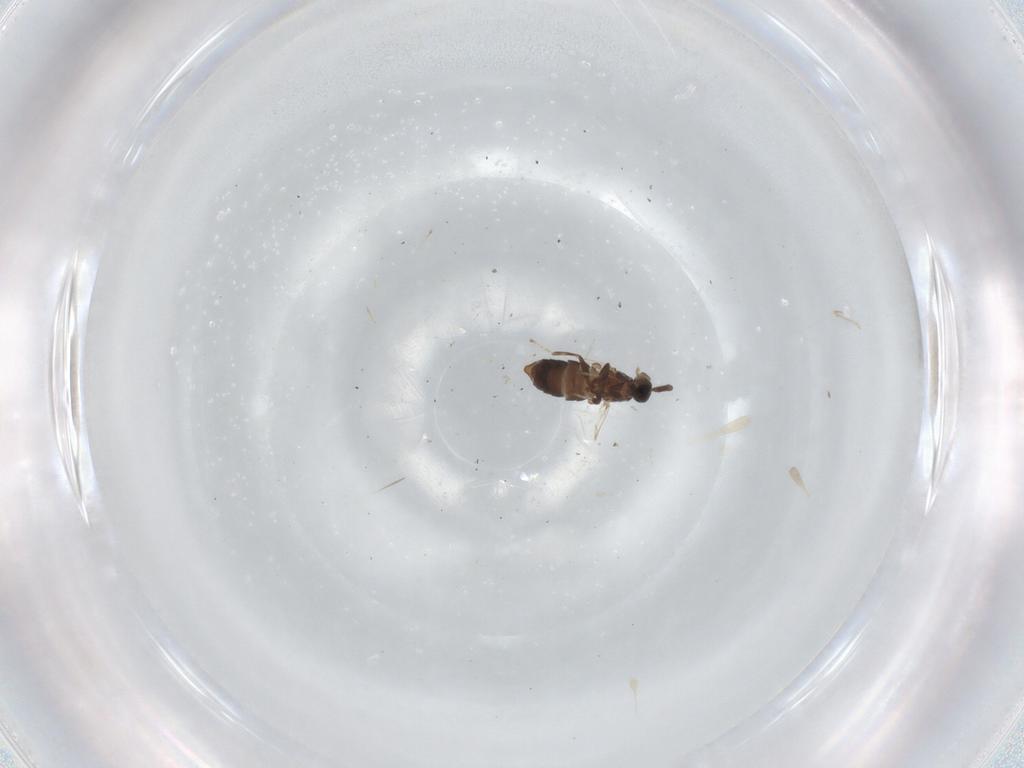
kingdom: Animalia
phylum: Arthropoda
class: Insecta
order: Diptera
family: Scatopsidae
